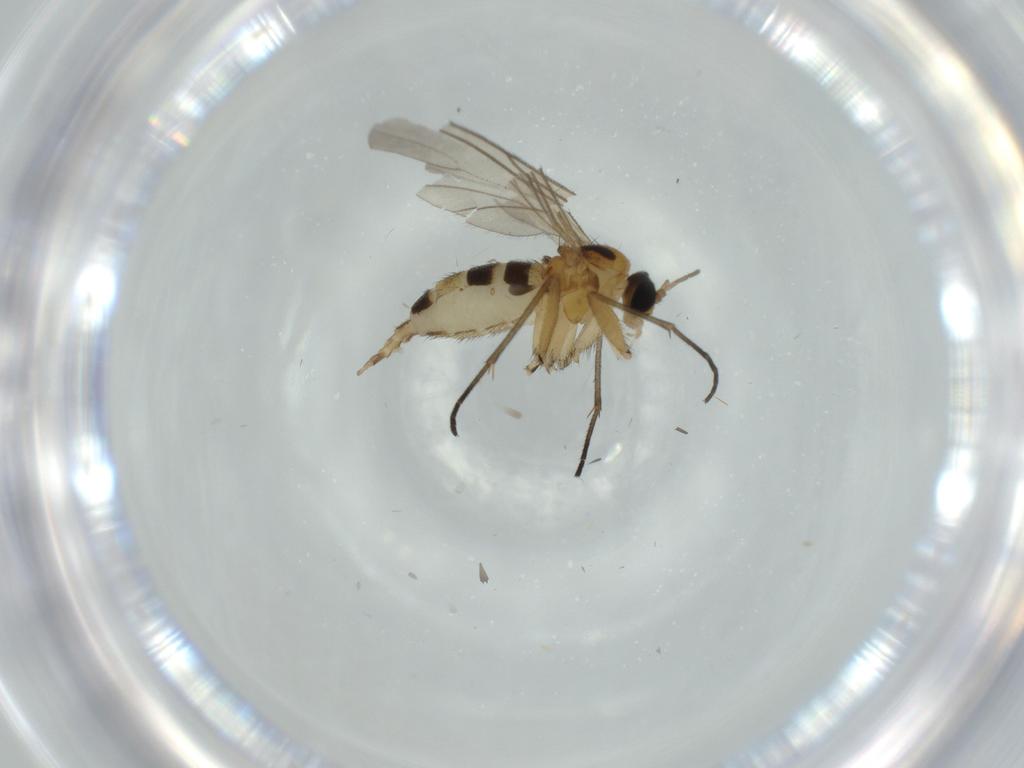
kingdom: Animalia
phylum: Arthropoda
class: Insecta
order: Diptera
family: Sciaridae
